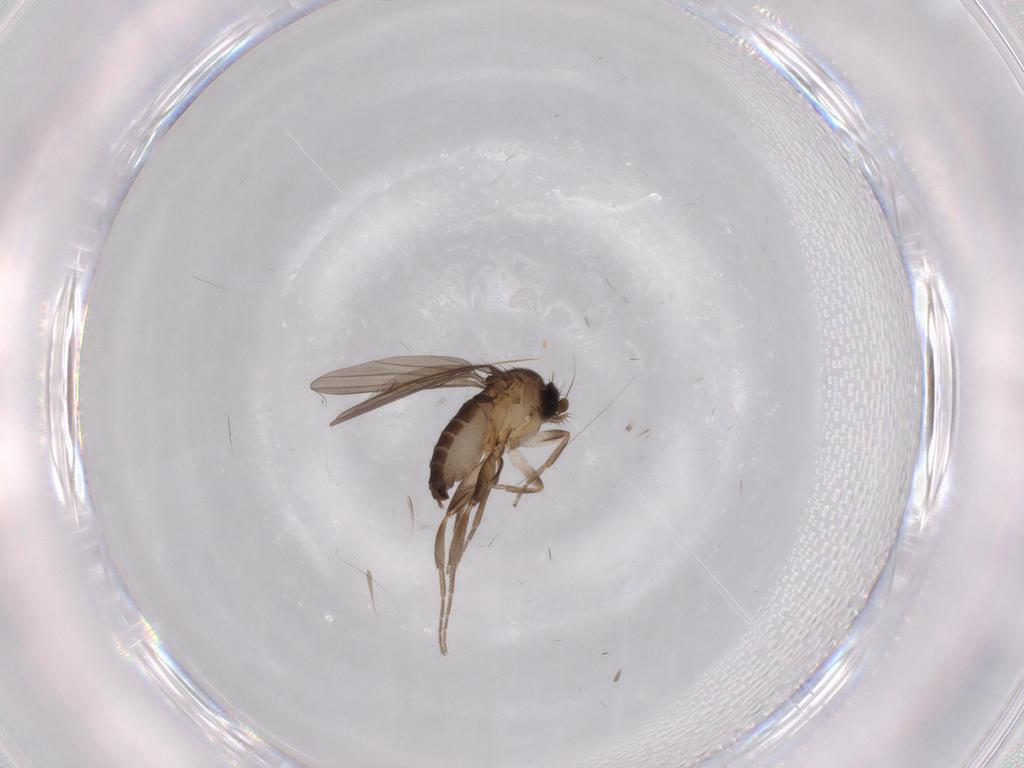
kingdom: Animalia
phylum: Arthropoda
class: Insecta
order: Diptera
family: Limoniidae
